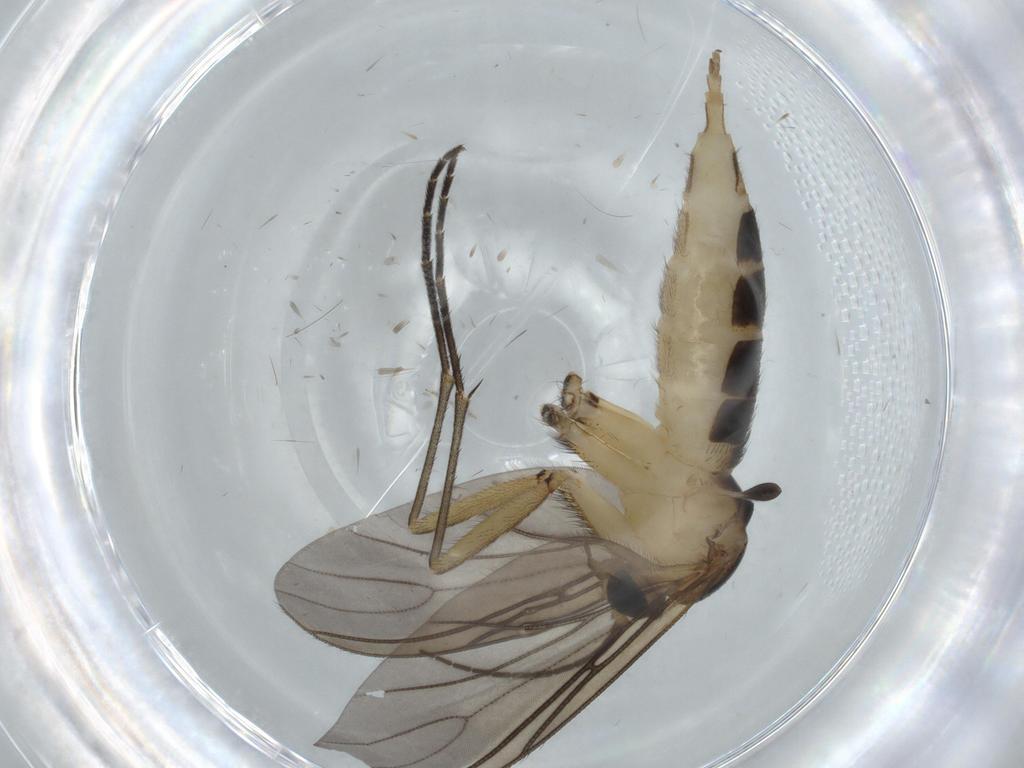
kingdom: Animalia
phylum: Arthropoda
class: Insecta
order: Diptera
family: Sciaridae
